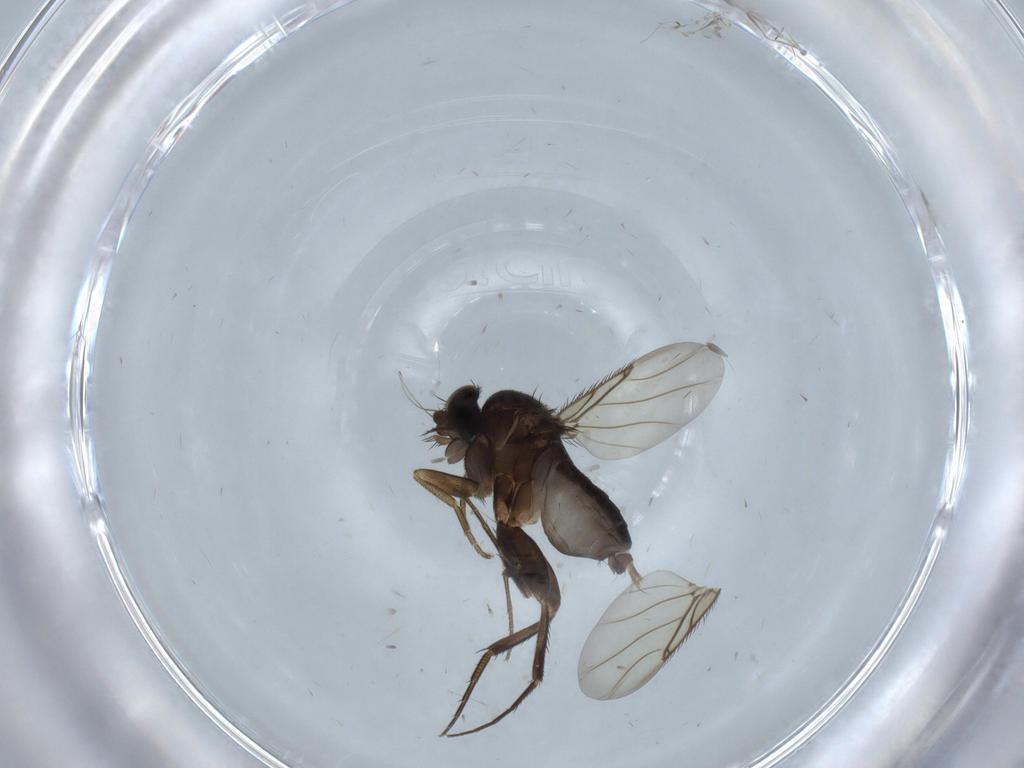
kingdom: Animalia
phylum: Arthropoda
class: Insecta
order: Diptera
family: Phoridae
